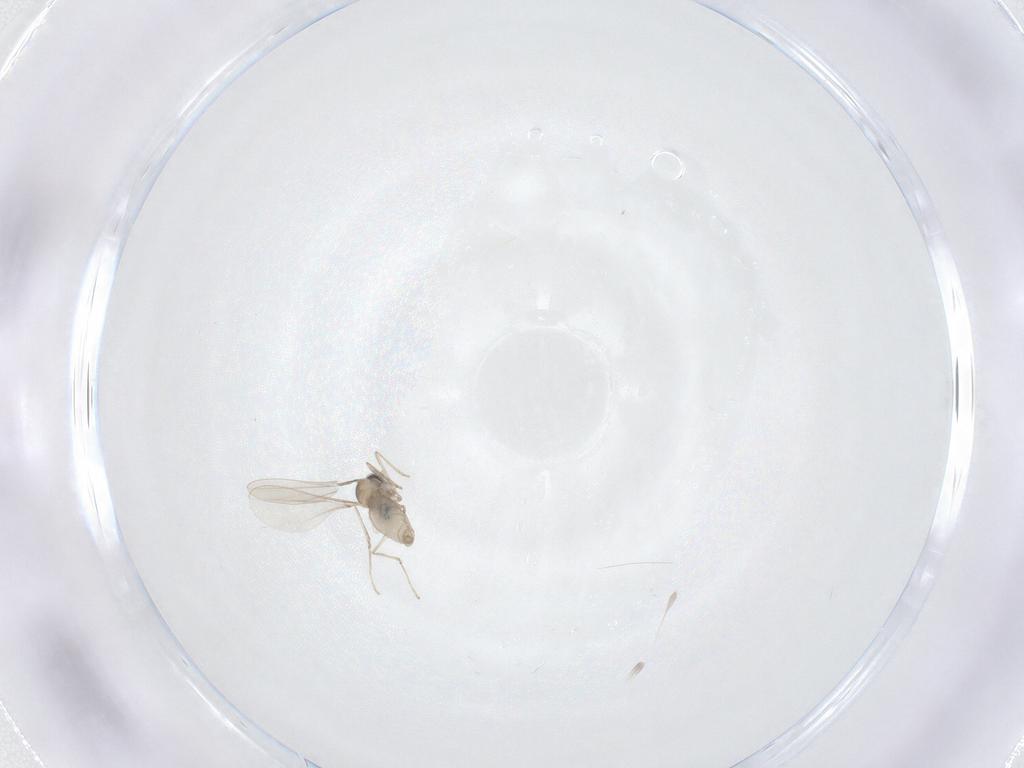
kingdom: Animalia
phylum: Arthropoda
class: Insecta
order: Diptera
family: Cecidomyiidae
